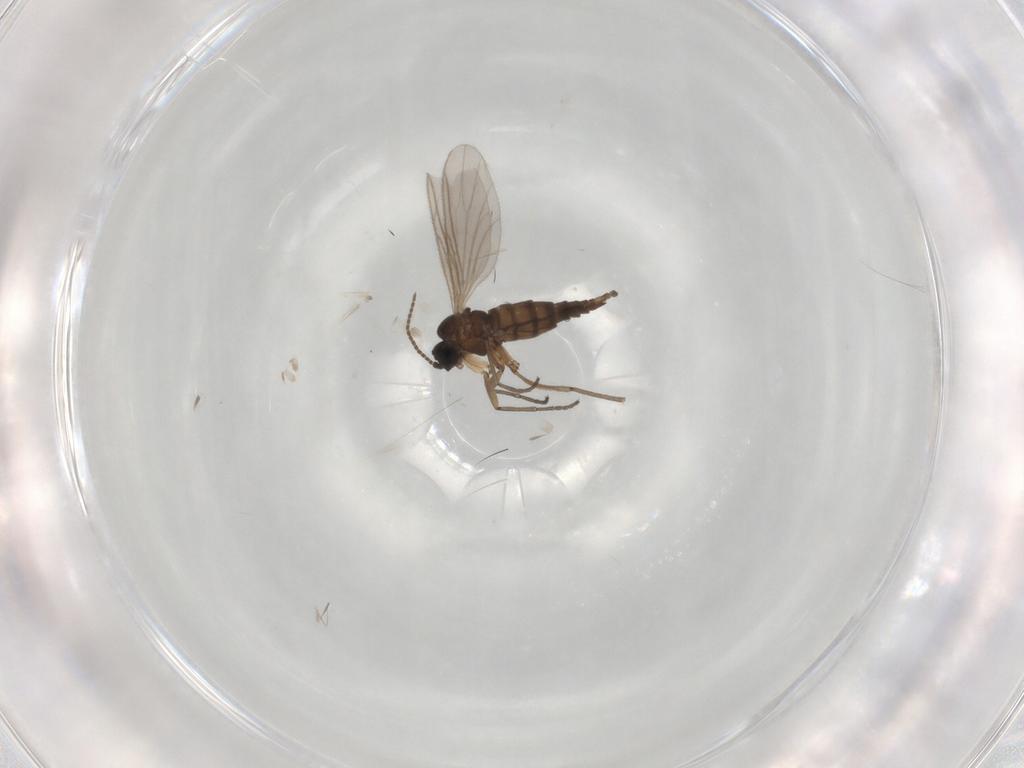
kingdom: Animalia
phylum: Arthropoda
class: Insecta
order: Diptera
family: Sciaridae
